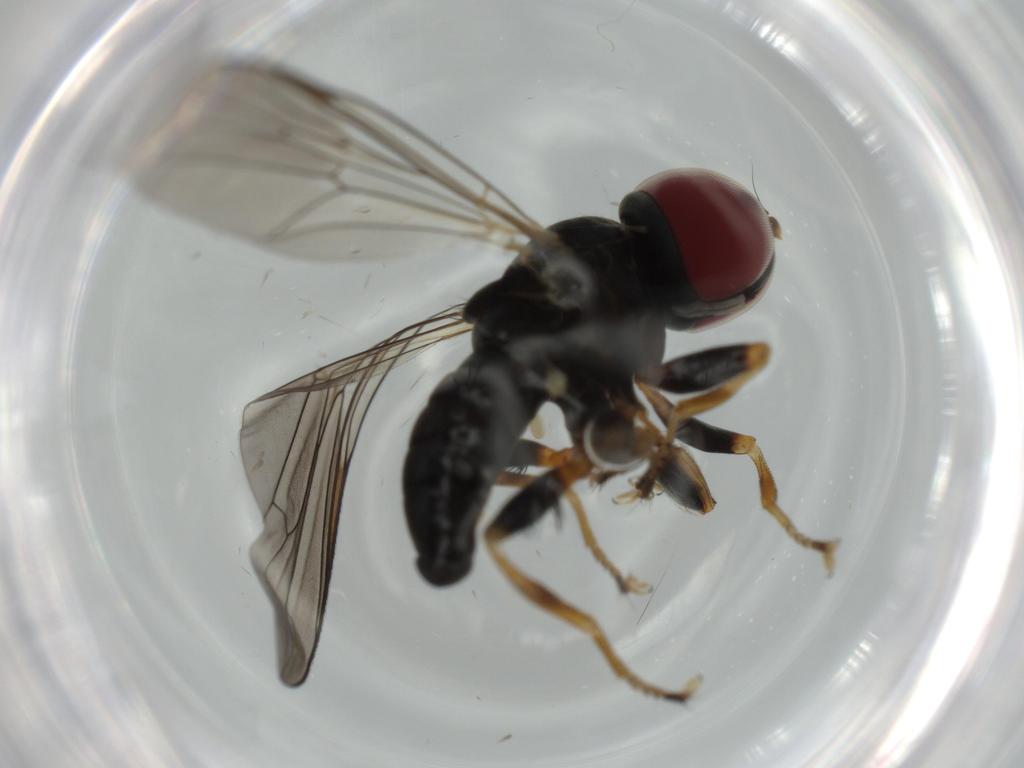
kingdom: Animalia
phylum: Arthropoda
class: Insecta
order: Diptera
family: Pipunculidae
